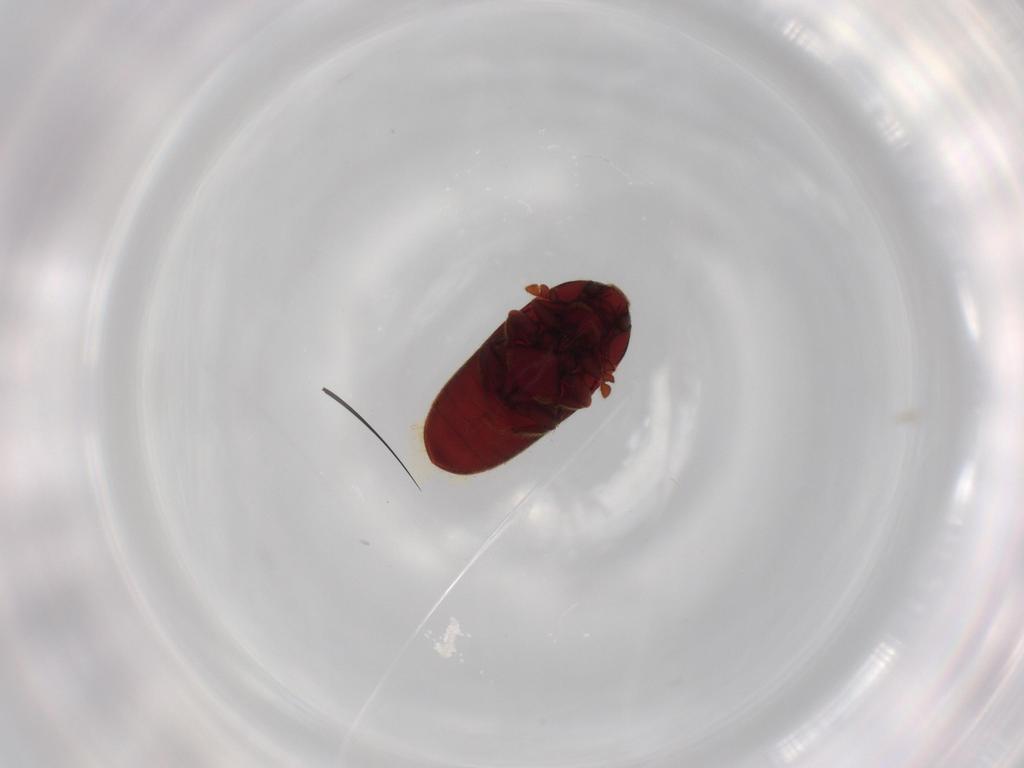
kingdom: Animalia
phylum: Arthropoda
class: Insecta
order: Coleoptera
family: Throscidae
